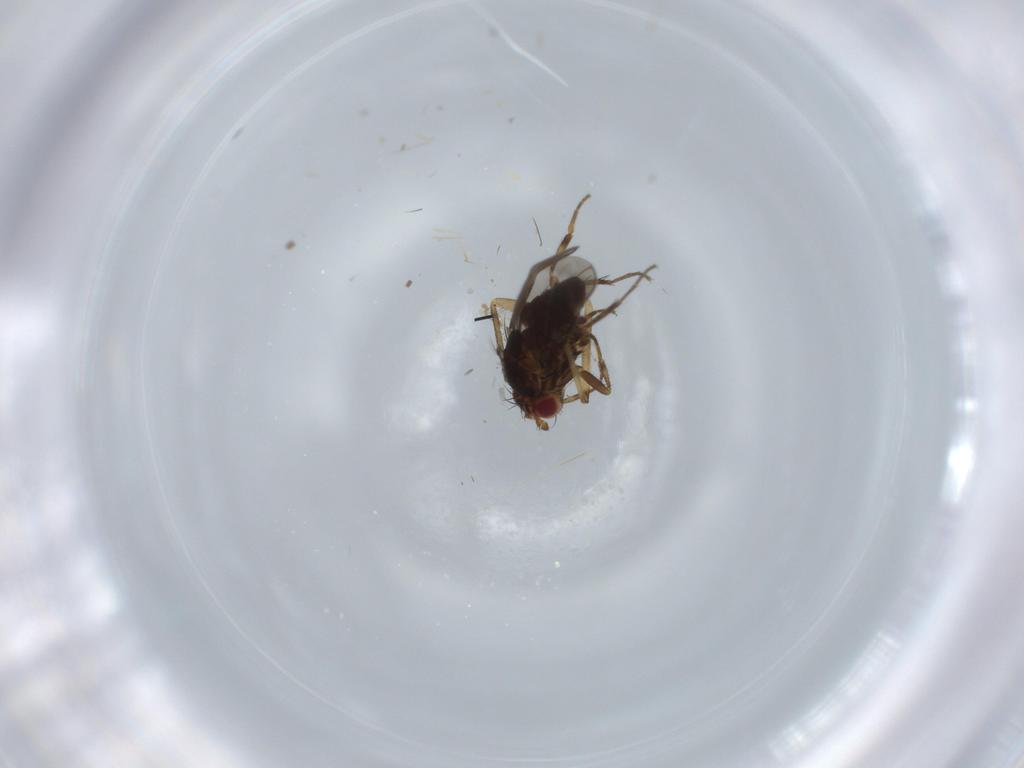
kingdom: Animalia
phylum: Arthropoda
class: Insecta
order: Diptera
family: Sphaeroceridae
